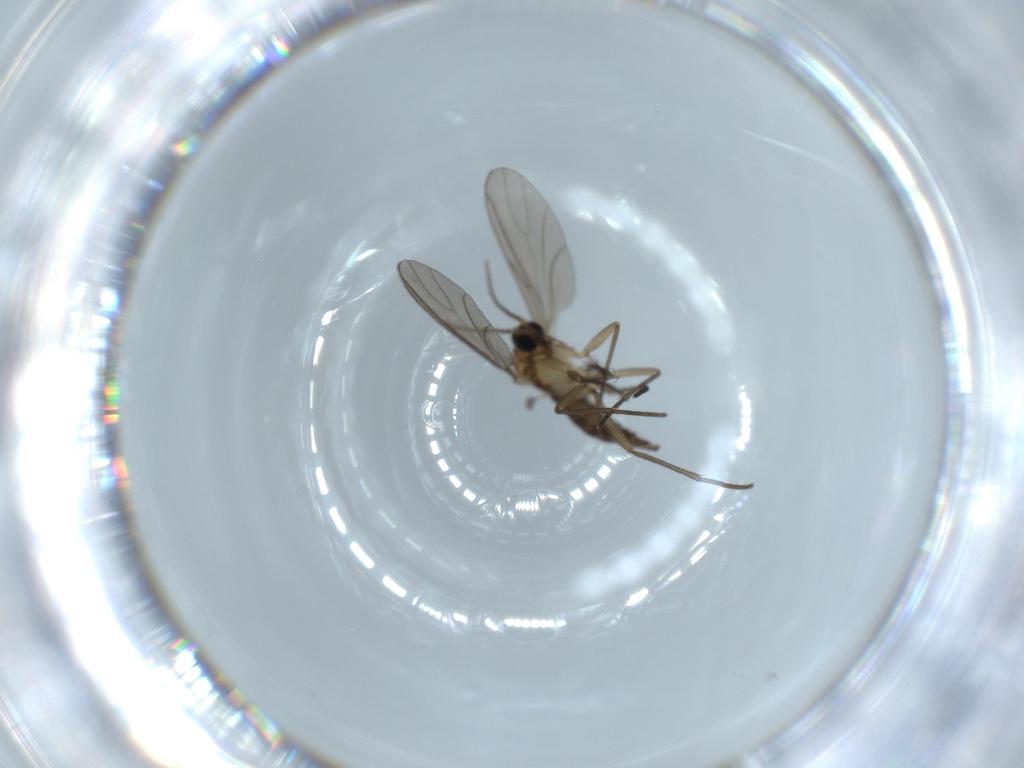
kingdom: Animalia
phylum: Arthropoda
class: Insecta
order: Diptera
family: Sciaridae
